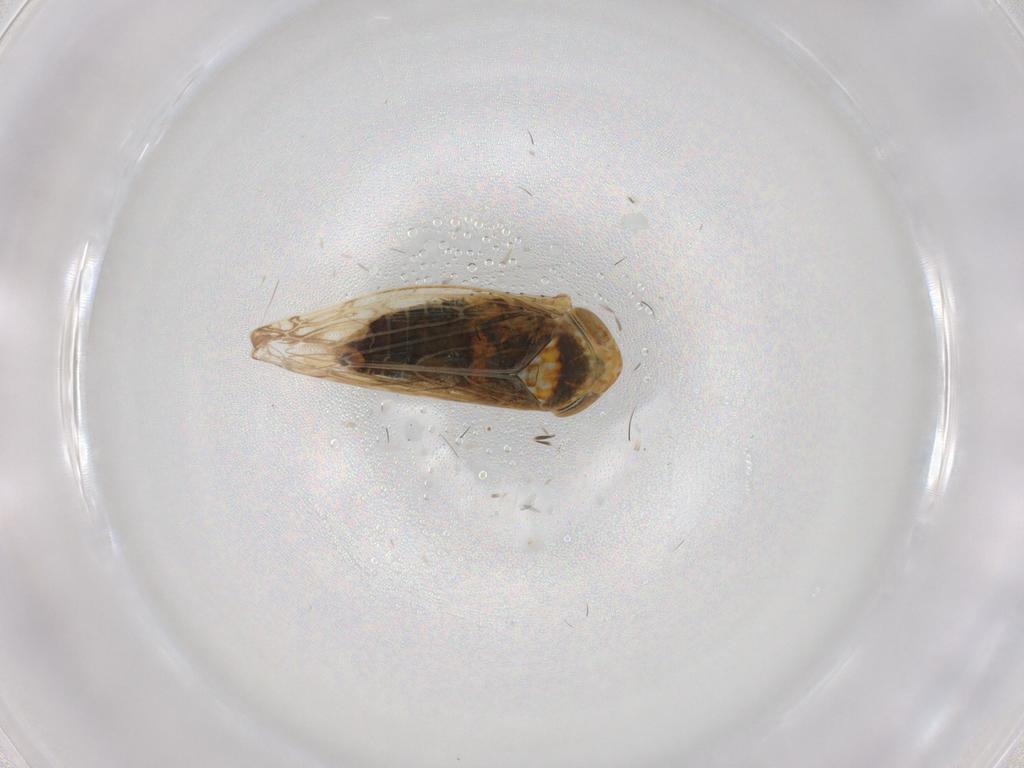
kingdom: Animalia
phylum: Arthropoda
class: Insecta
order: Hemiptera
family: Cicadellidae
